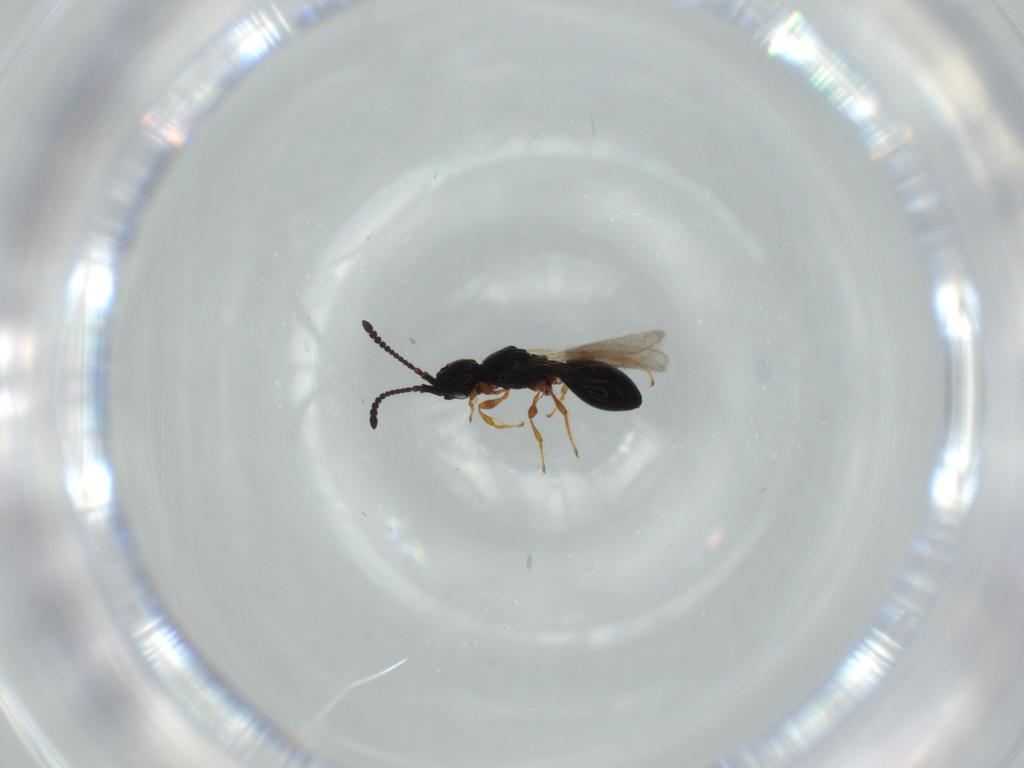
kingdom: Animalia
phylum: Arthropoda
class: Insecta
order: Hymenoptera
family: Diapriidae
